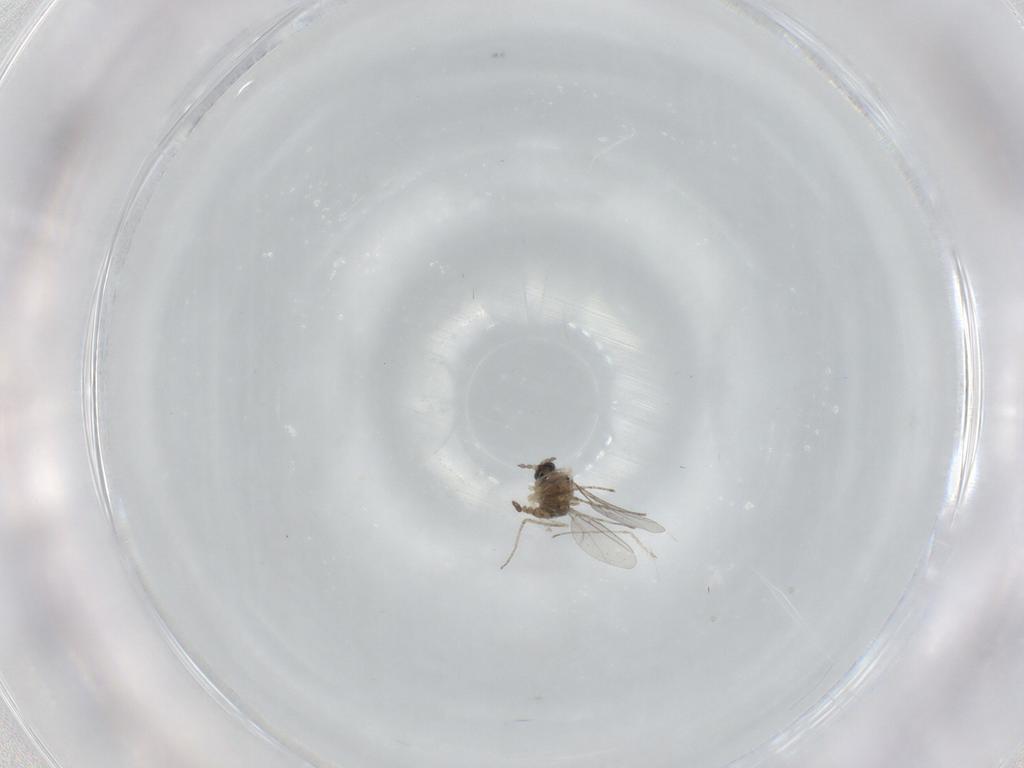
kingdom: Animalia
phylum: Arthropoda
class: Insecta
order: Diptera
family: Cecidomyiidae
